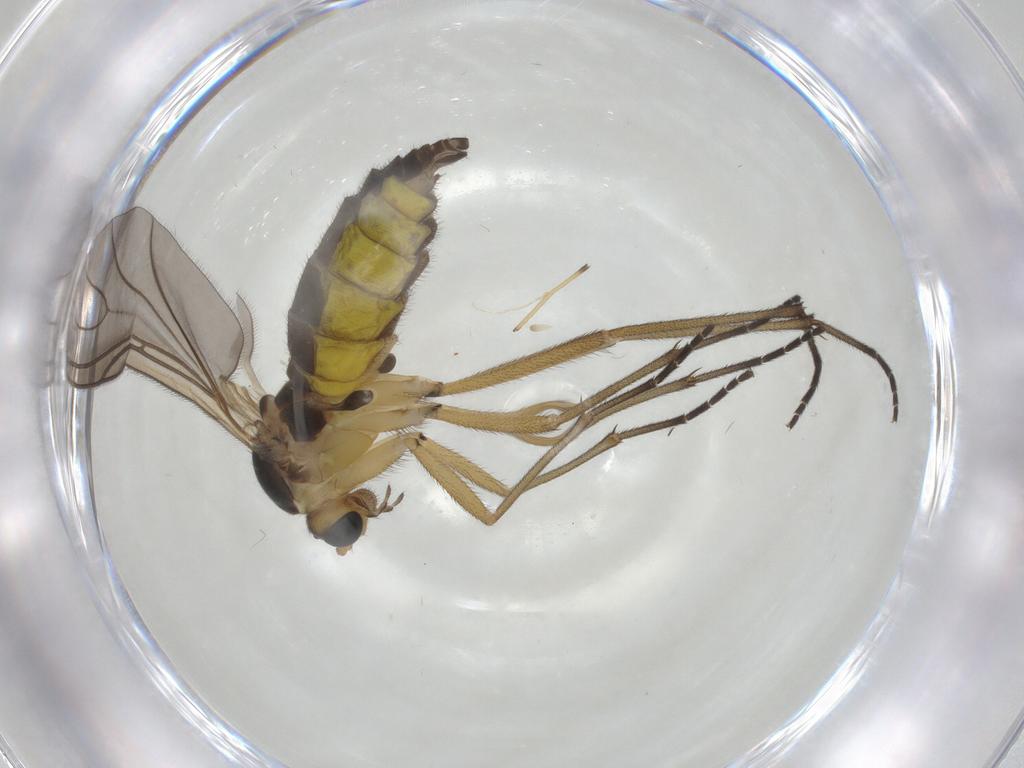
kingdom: Animalia
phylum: Arthropoda
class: Insecta
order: Diptera
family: Sciaridae
